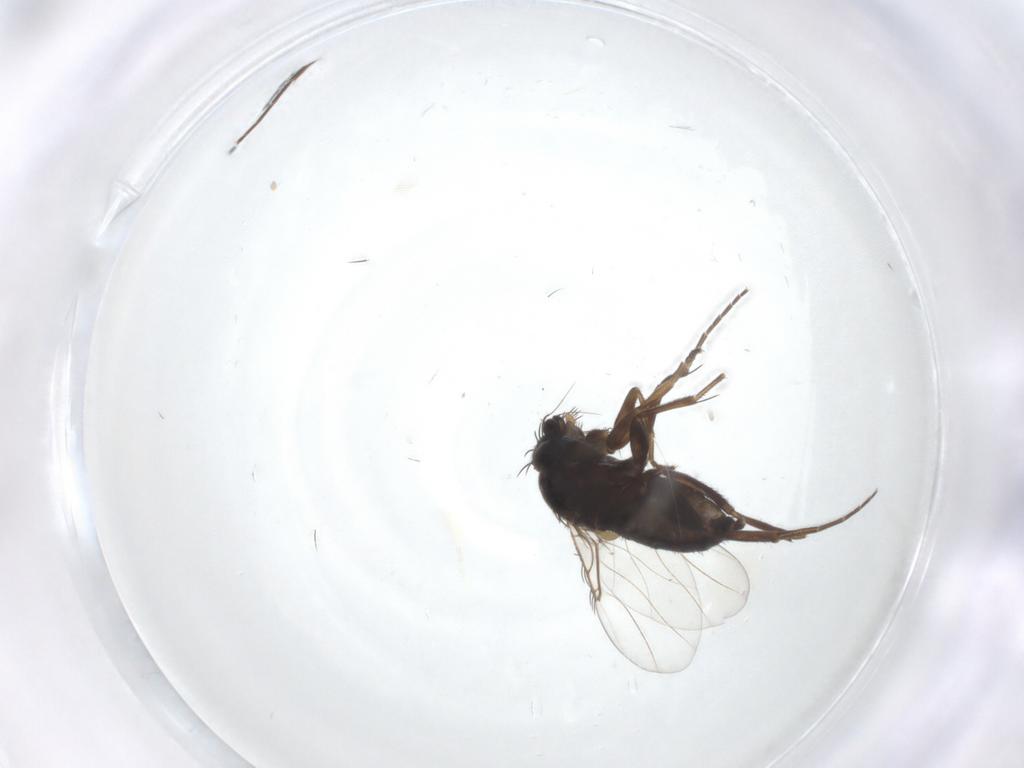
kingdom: Animalia
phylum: Arthropoda
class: Insecta
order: Diptera
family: Phoridae
